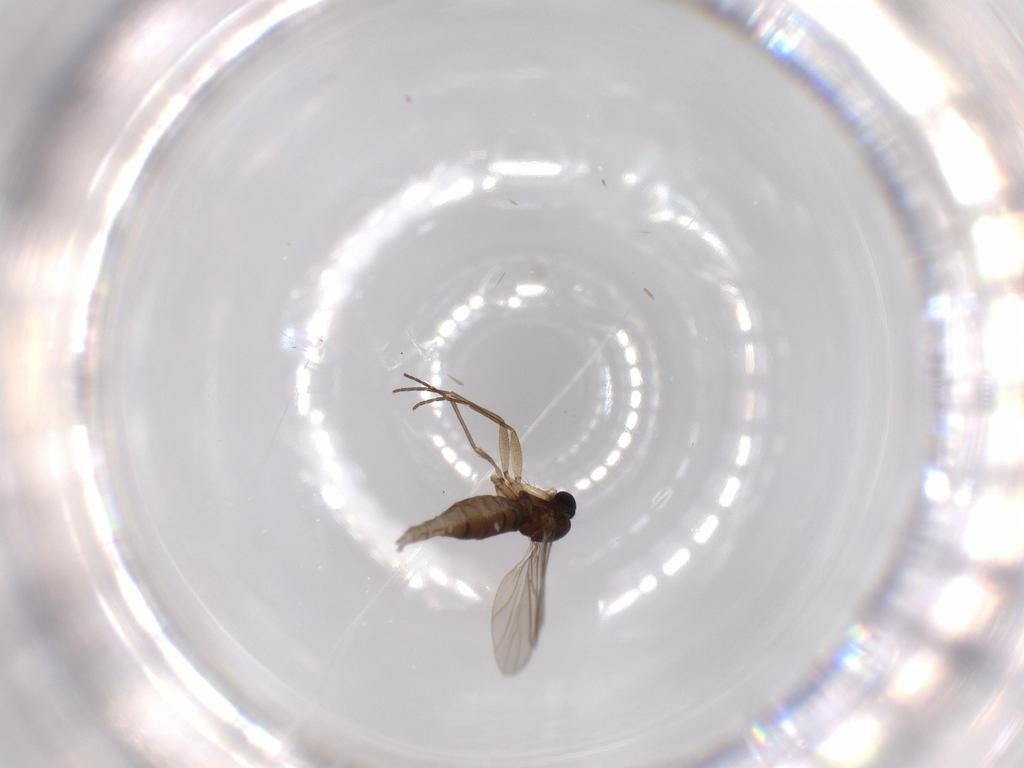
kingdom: Animalia
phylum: Arthropoda
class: Insecta
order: Diptera
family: Sciaridae
